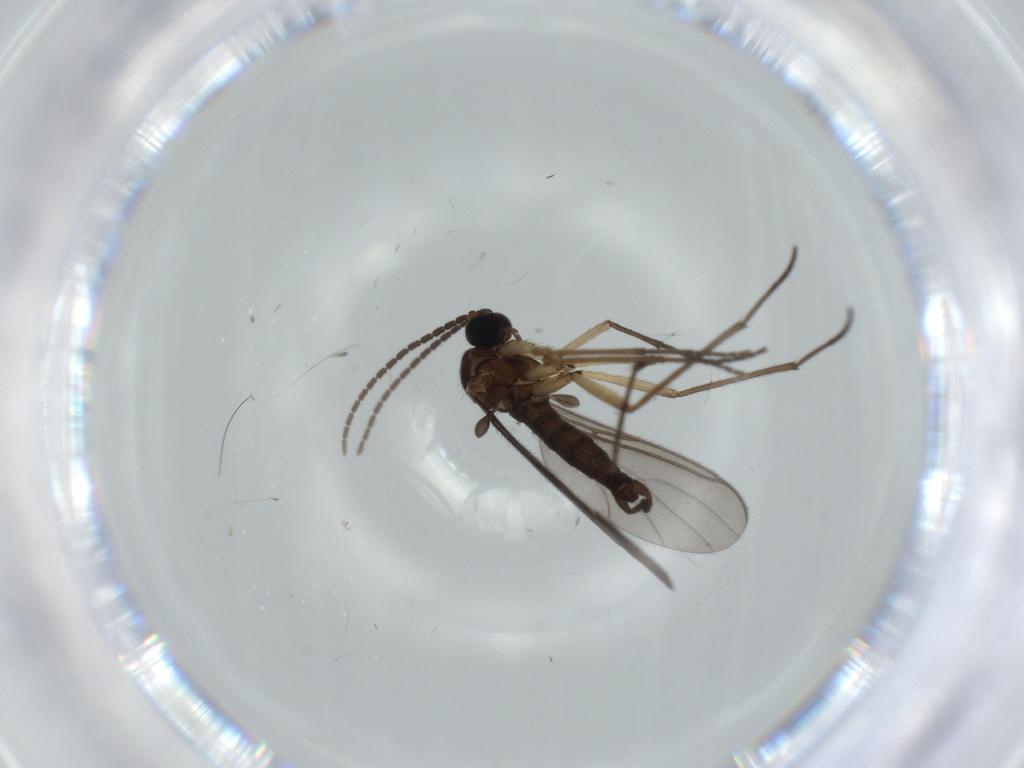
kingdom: Animalia
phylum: Arthropoda
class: Insecta
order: Diptera
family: Sciaridae
